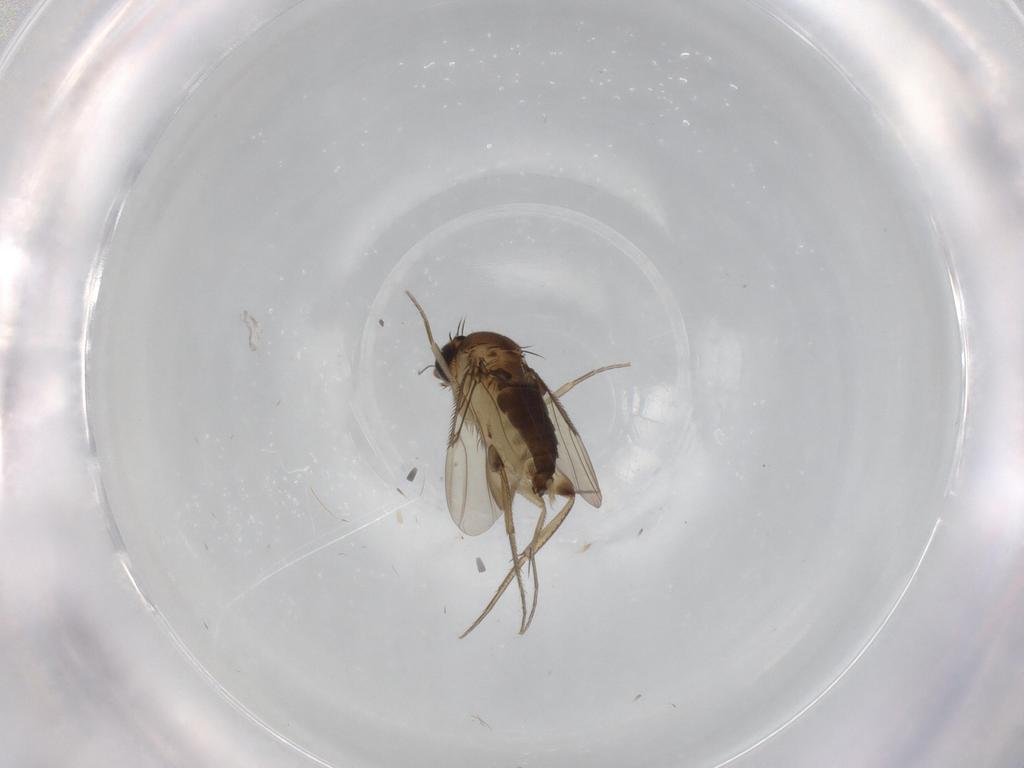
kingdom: Animalia
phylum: Arthropoda
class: Insecta
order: Diptera
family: Phoridae
